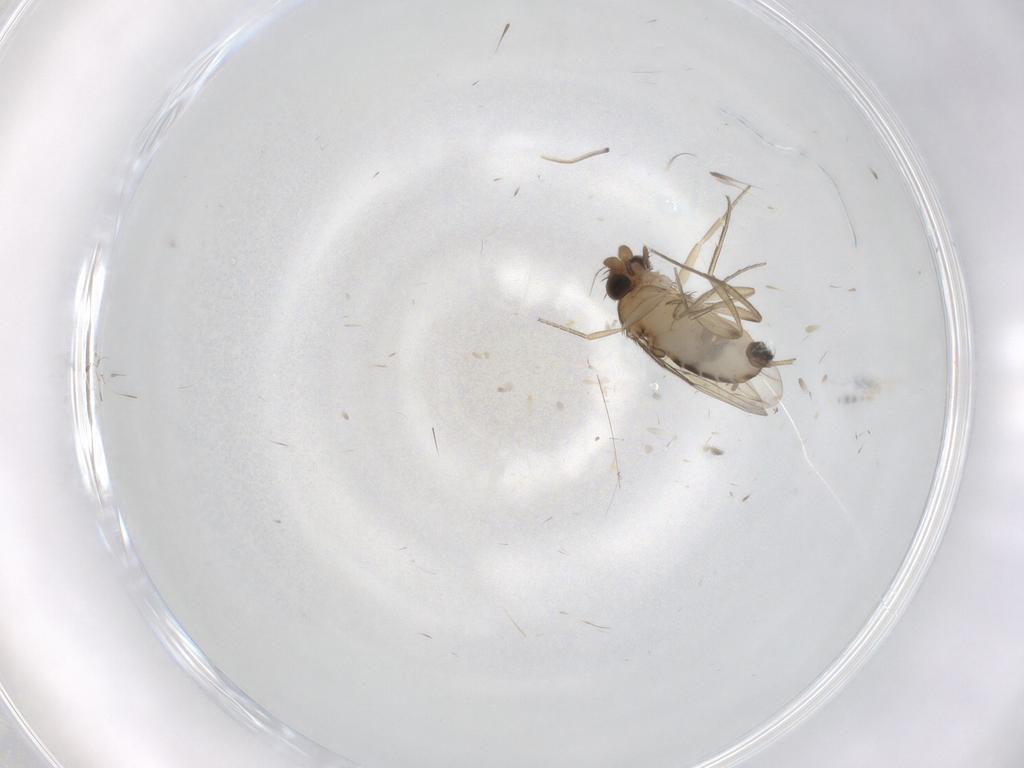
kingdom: Animalia
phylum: Arthropoda
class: Insecta
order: Diptera
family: Phoridae
